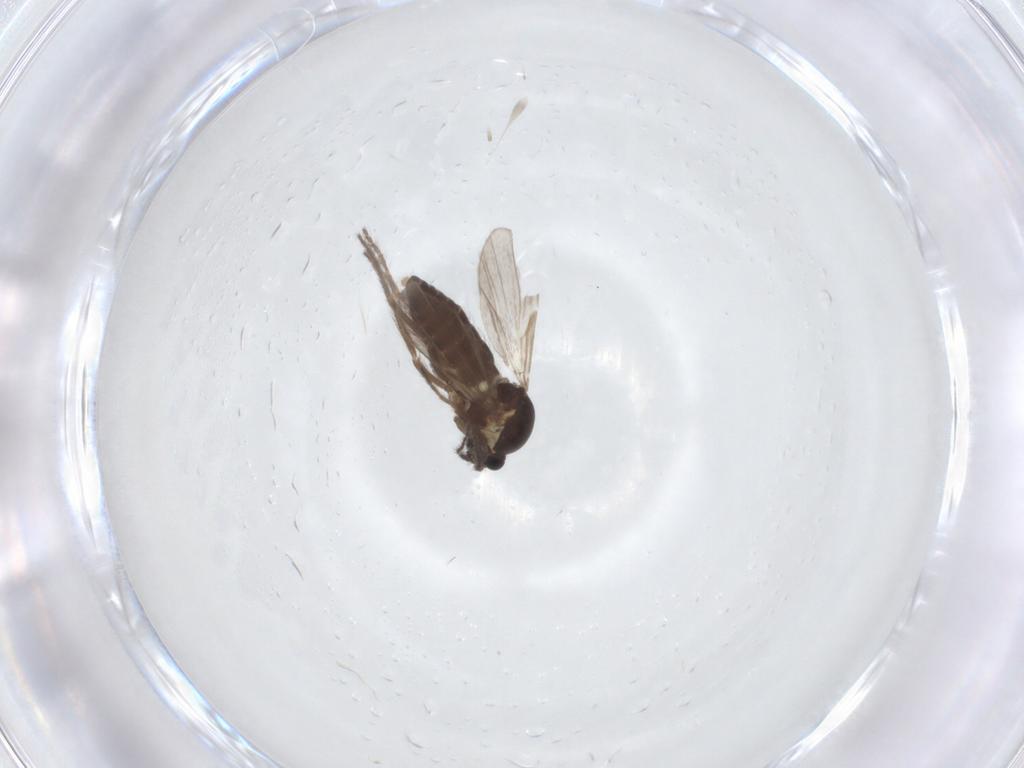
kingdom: Animalia
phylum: Arthropoda
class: Insecta
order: Diptera
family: Ceratopogonidae
